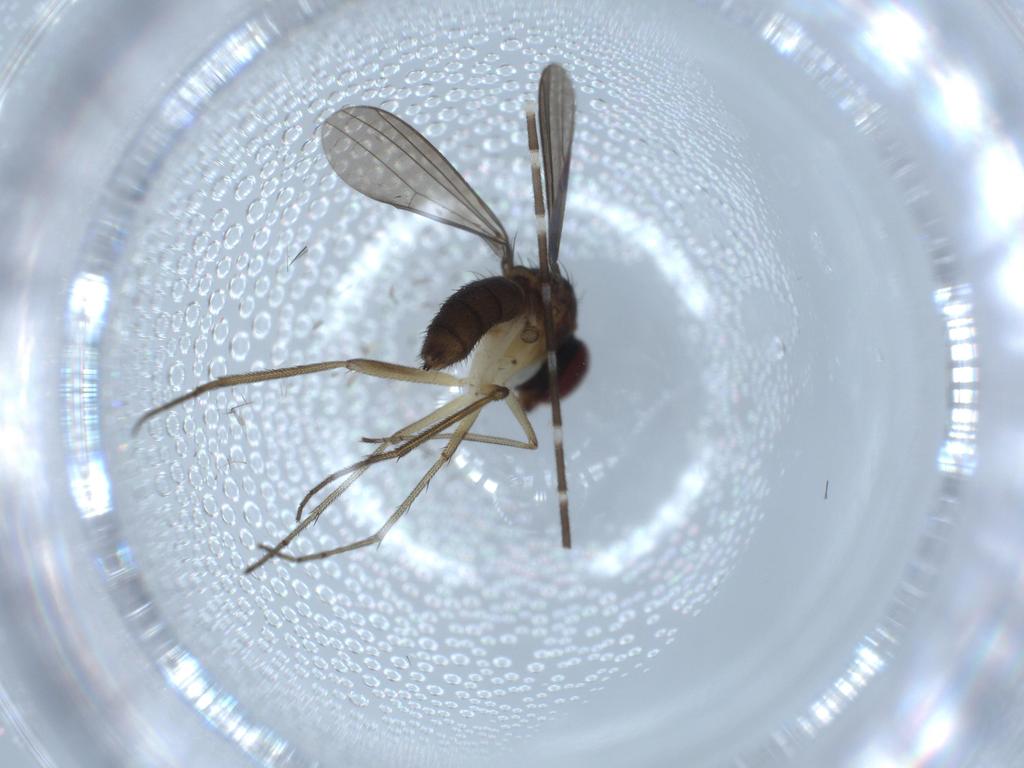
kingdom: Animalia
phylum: Arthropoda
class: Insecta
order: Diptera
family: Dolichopodidae
